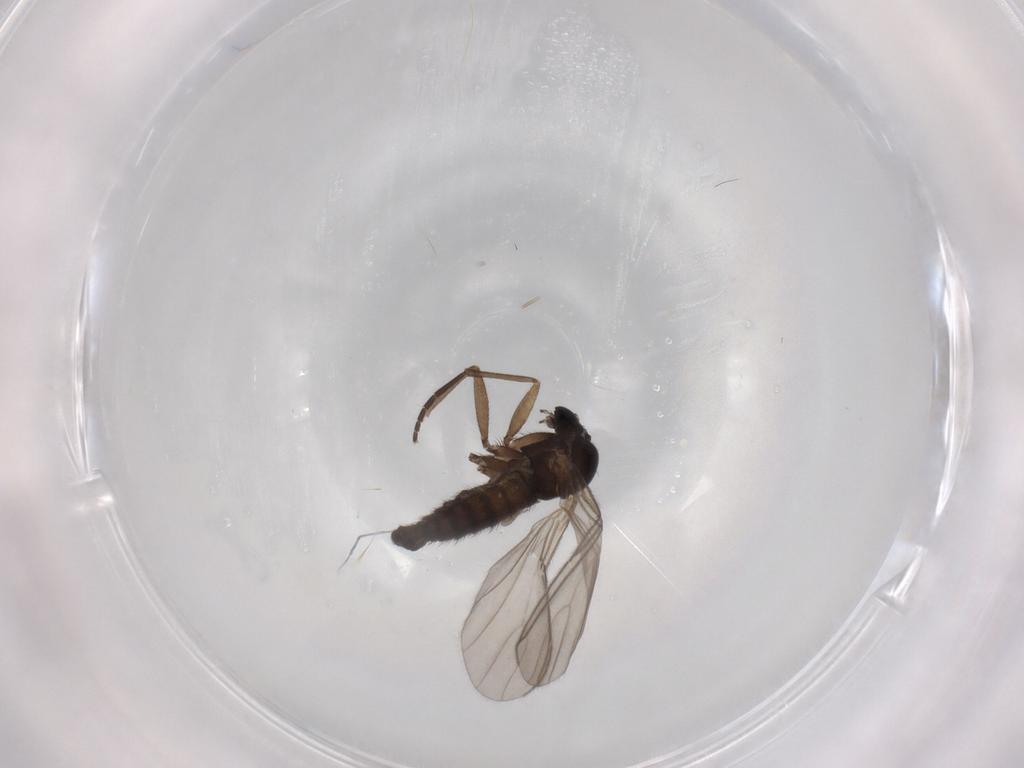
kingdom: Animalia
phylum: Arthropoda
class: Insecta
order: Diptera
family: Sciaridae
